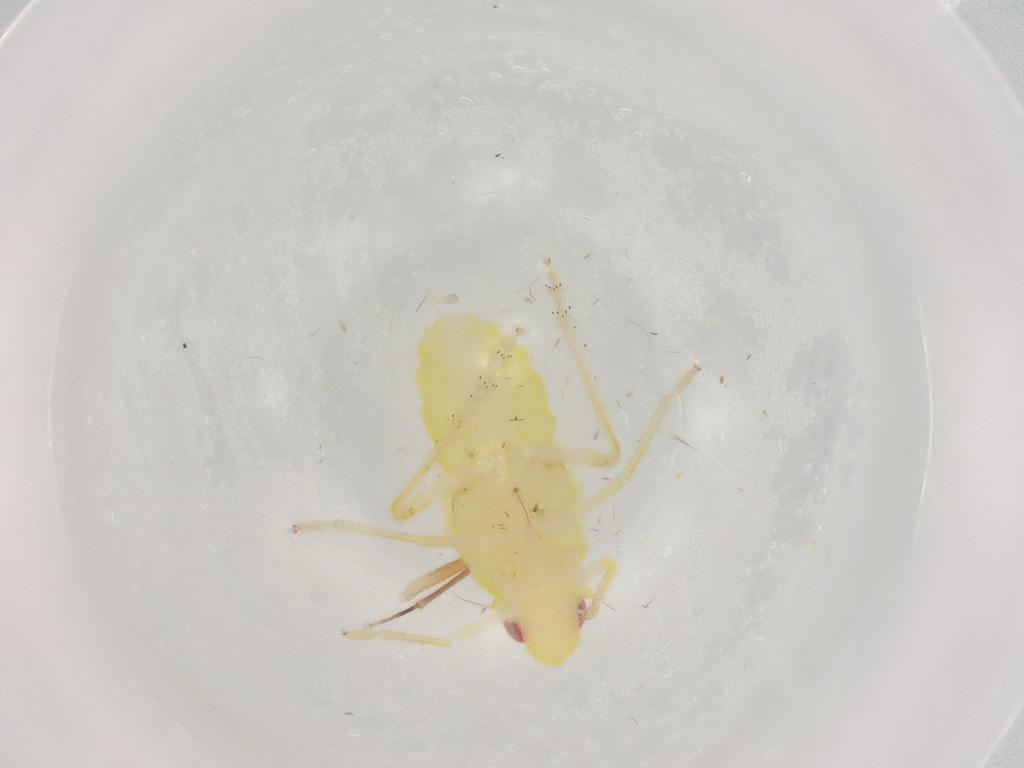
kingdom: Animalia
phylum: Arthropoda
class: Insecta
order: Hemiptera
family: Miridae
